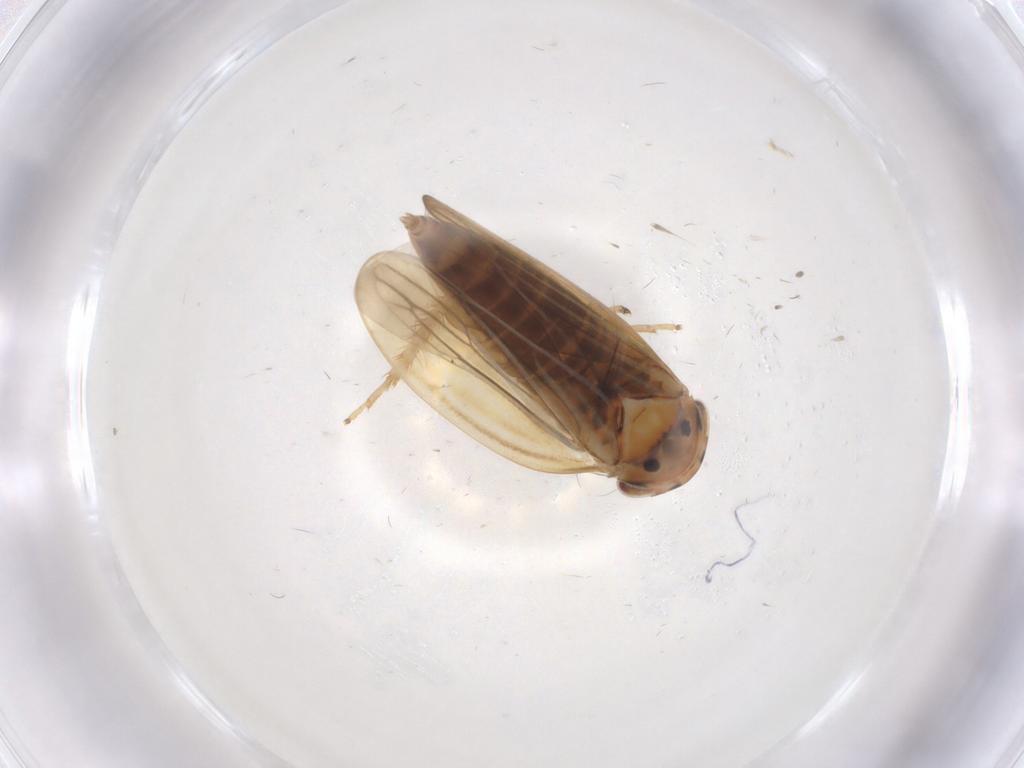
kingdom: Animalia
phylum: Arthropoda
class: Insecta
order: Hemiptera
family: Cicadellidae
